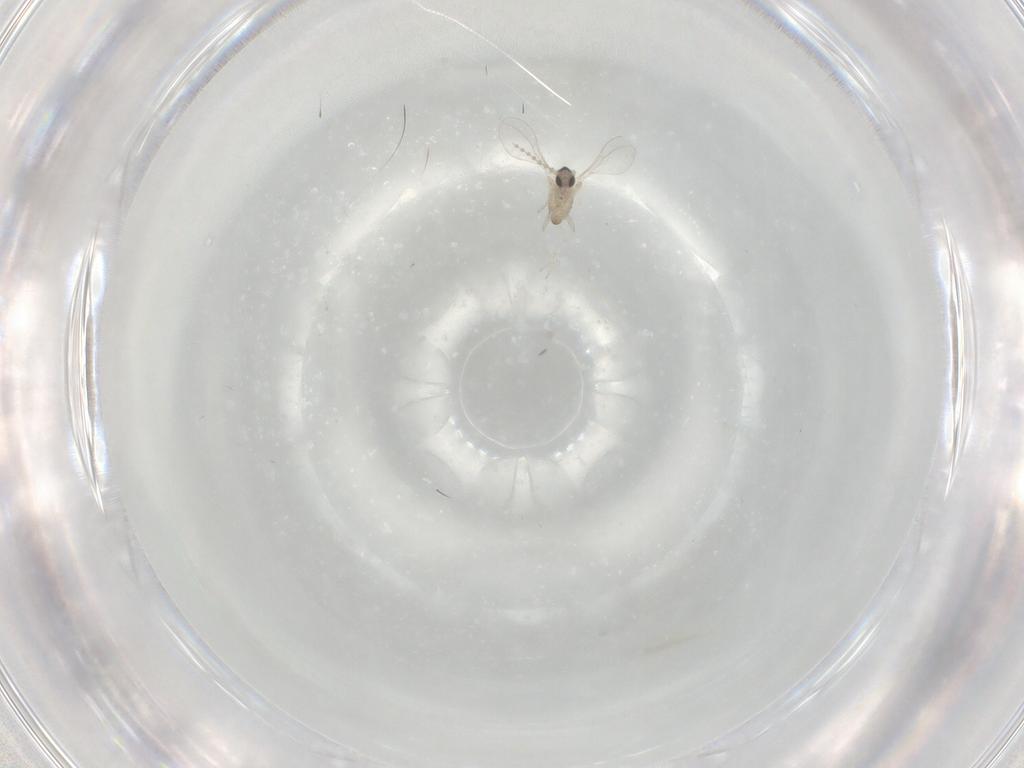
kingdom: Animalia
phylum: Arthropoda
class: Insecta
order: Diptera
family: Cecidomyiidae
